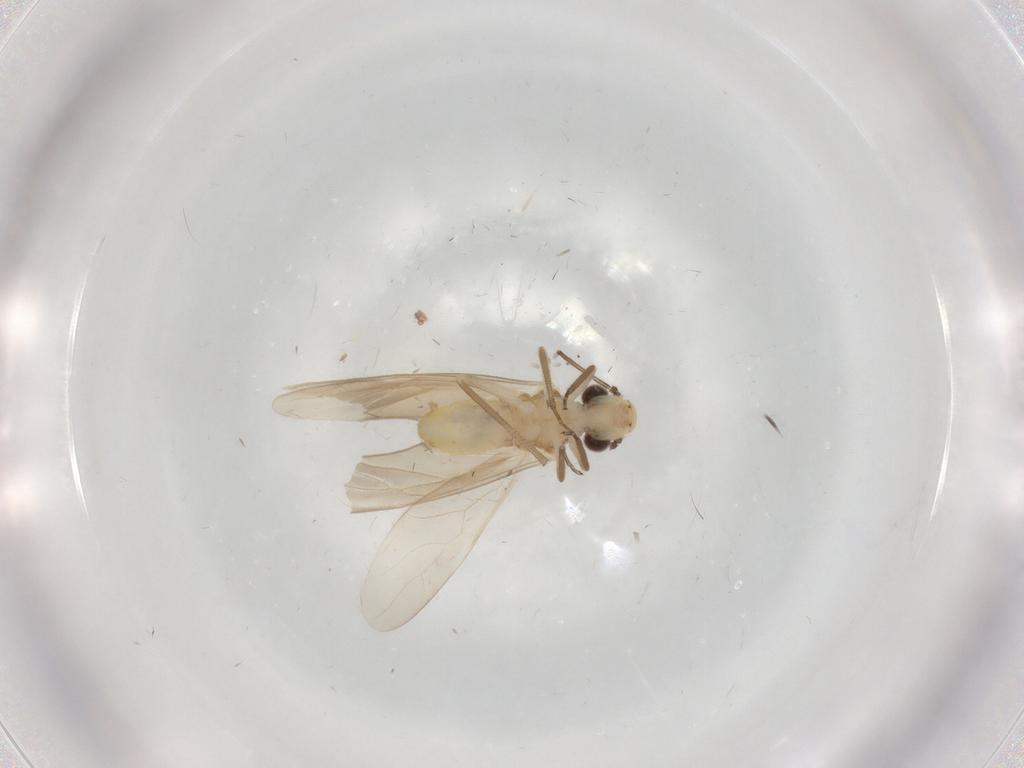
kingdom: Animalia
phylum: Arthropoda
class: Insecta
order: Psocodea
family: Caeciliusidae
